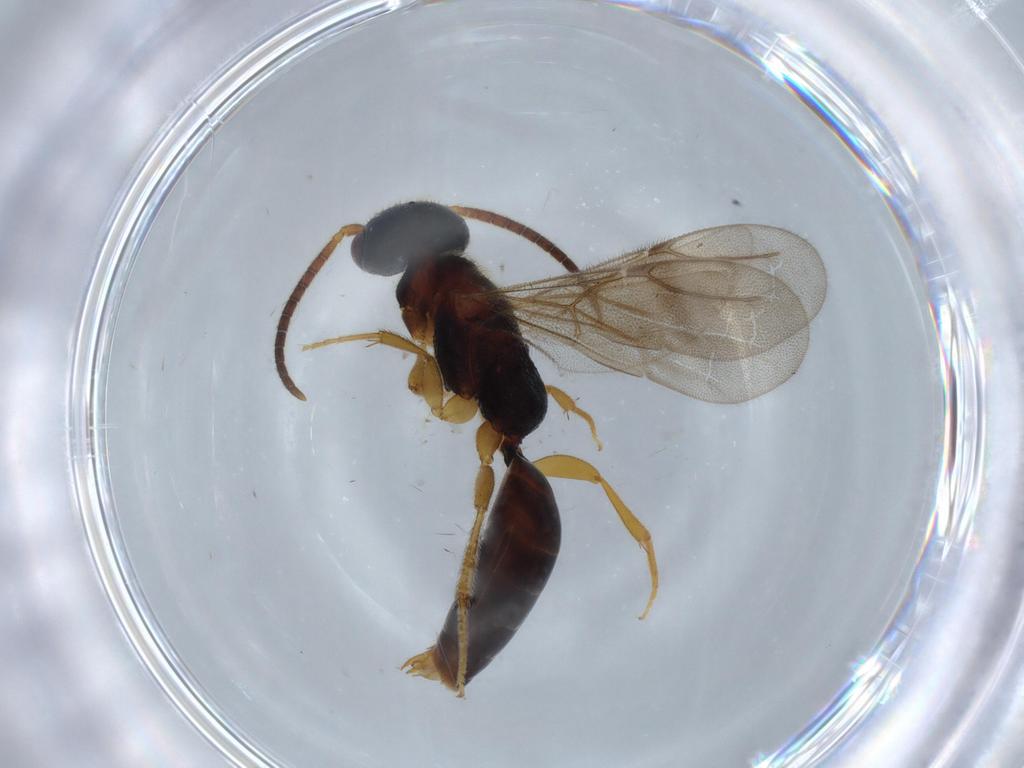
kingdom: Animalia
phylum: Arthropoda
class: Insecta
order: Hymenoptera
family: Bethylidae
